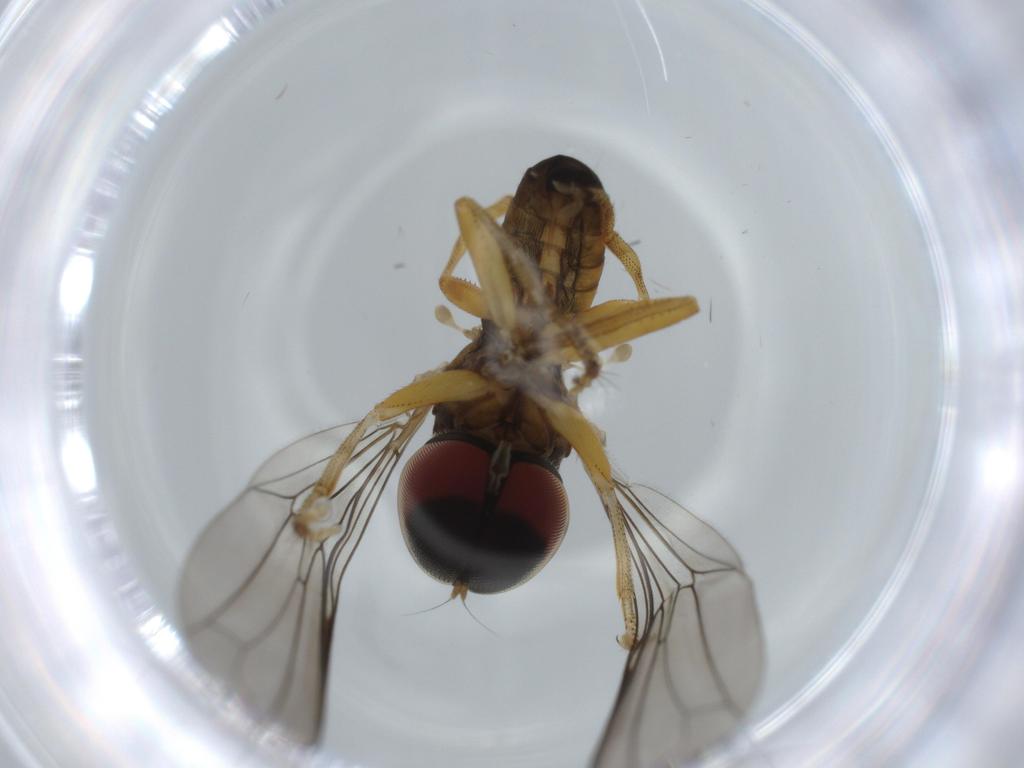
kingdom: Animalia
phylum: Arthropoda
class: Insecta
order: Diptera
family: Pipunculidae
